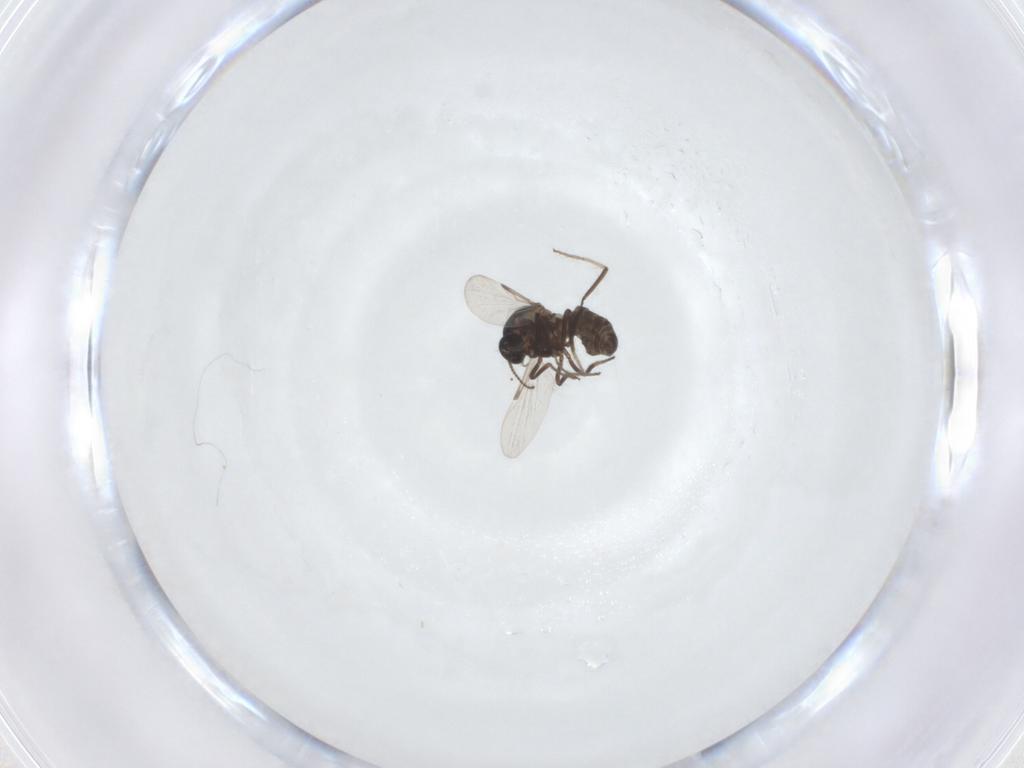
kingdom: Animalia
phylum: Arthropoda
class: Insecta
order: Diptera
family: Ceratopogonidae
